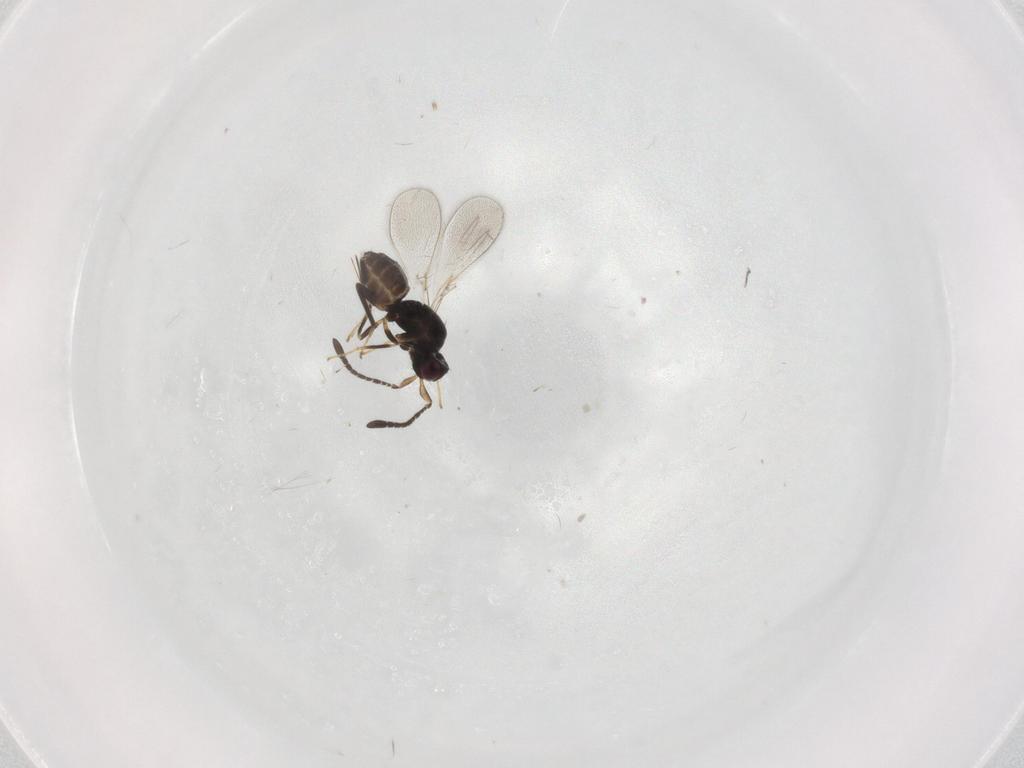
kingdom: Animalia
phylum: Arthropoda
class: Insecta
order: Hymenoptera
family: Mymaridae
